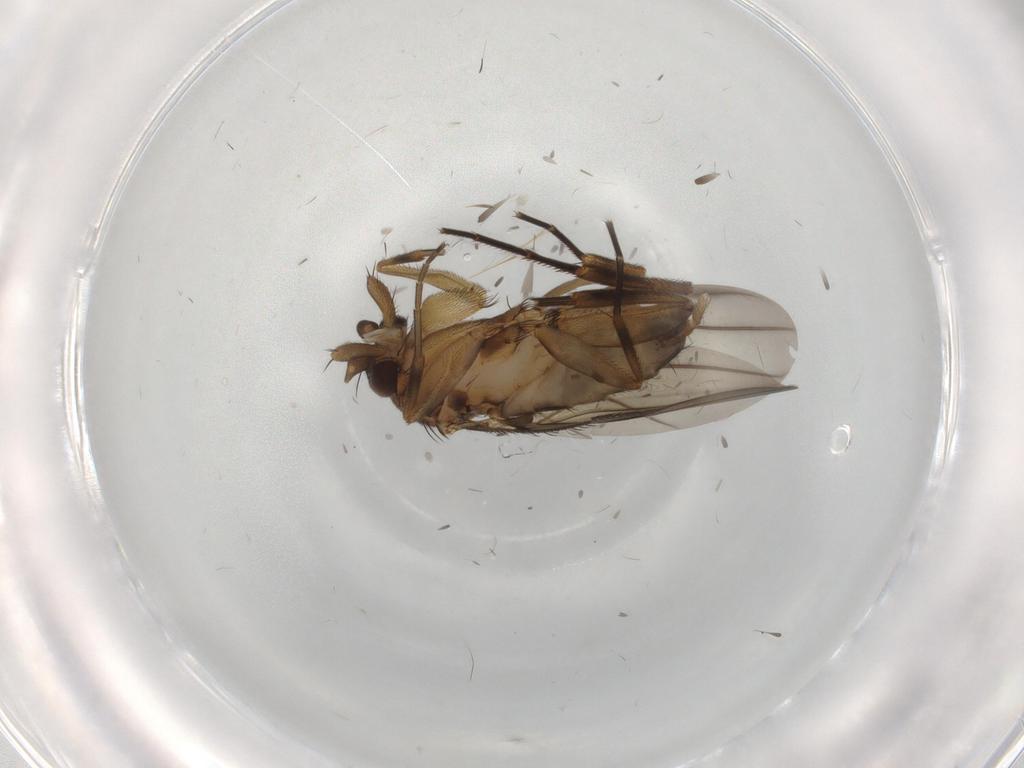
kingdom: Animalia
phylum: Arthropoda
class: Insecta
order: Diptera
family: Phoridae
